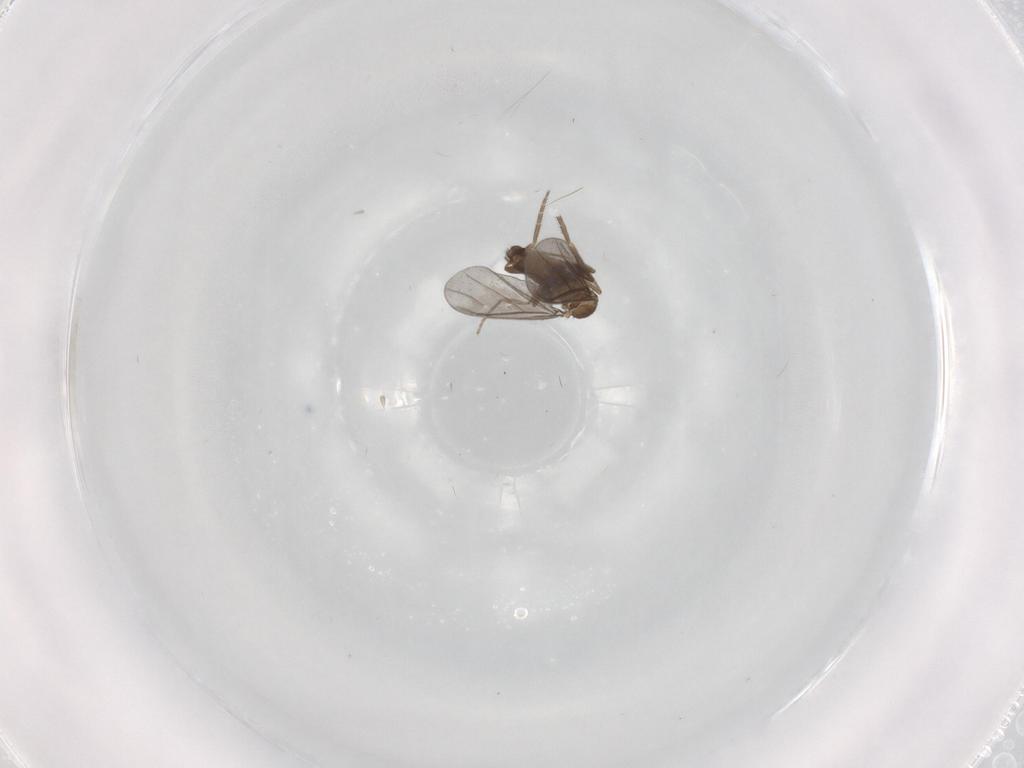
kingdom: Animalia
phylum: Arthropoda
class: Insecta
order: Diptera
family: Phoridae
